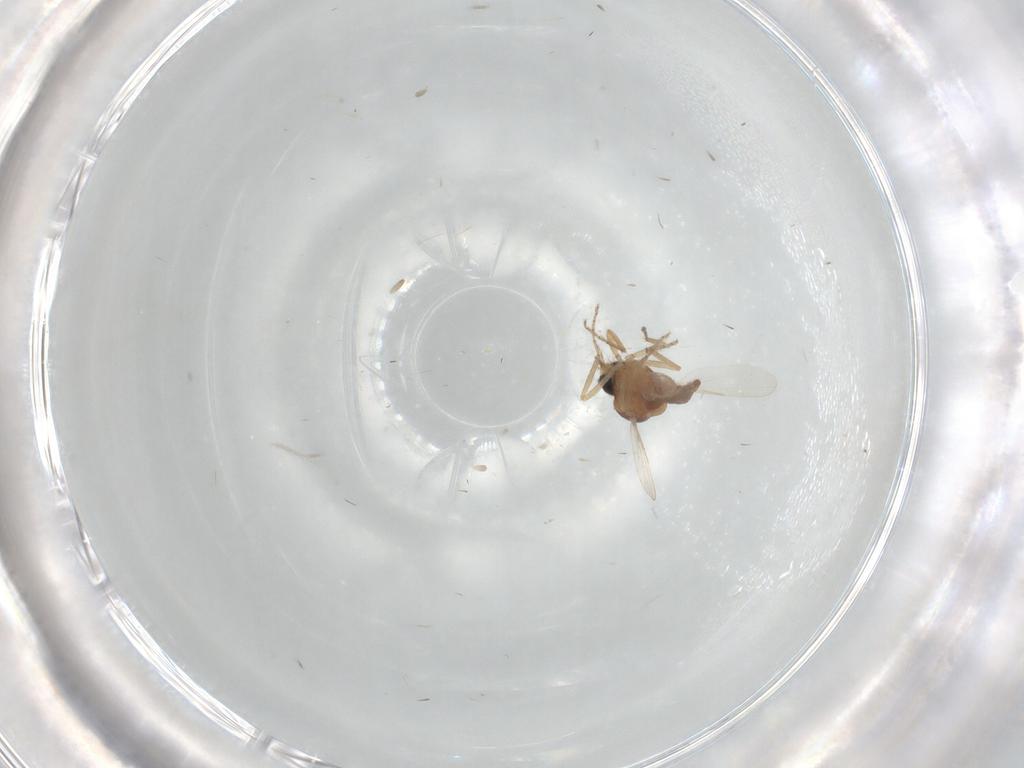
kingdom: Animalia
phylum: Arthropoda
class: Insecta
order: Diptera
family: Ceratopogonidae
